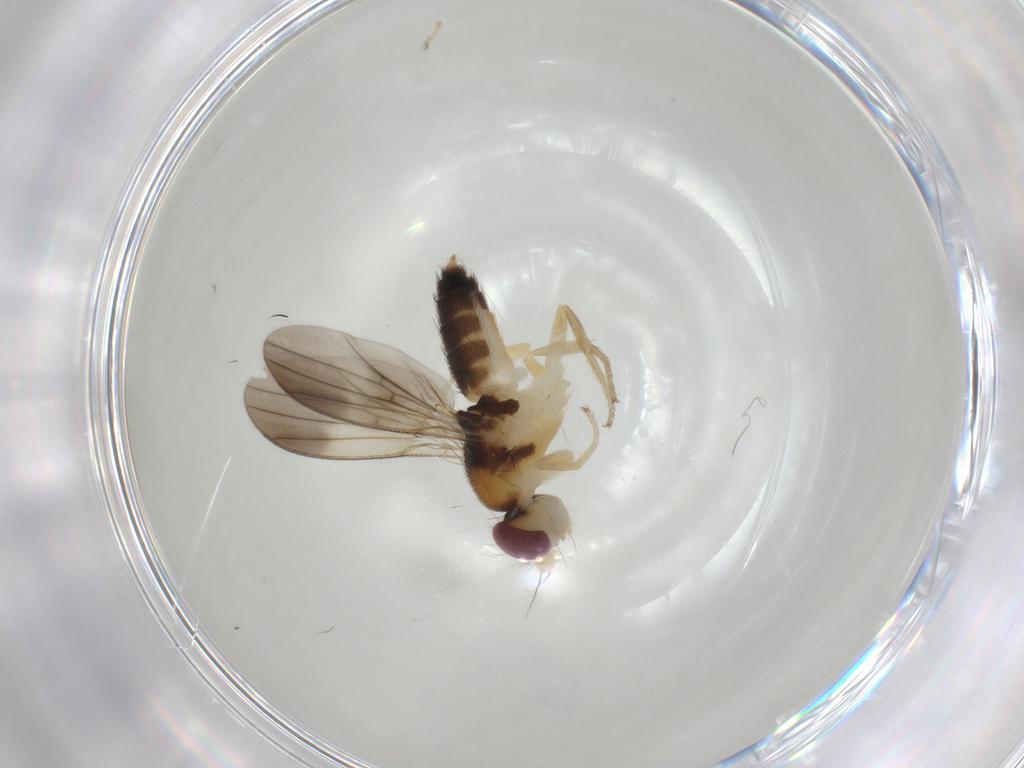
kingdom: Animalia
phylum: Arthropoda
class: Insecta
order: Diptera
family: Clusiidae
